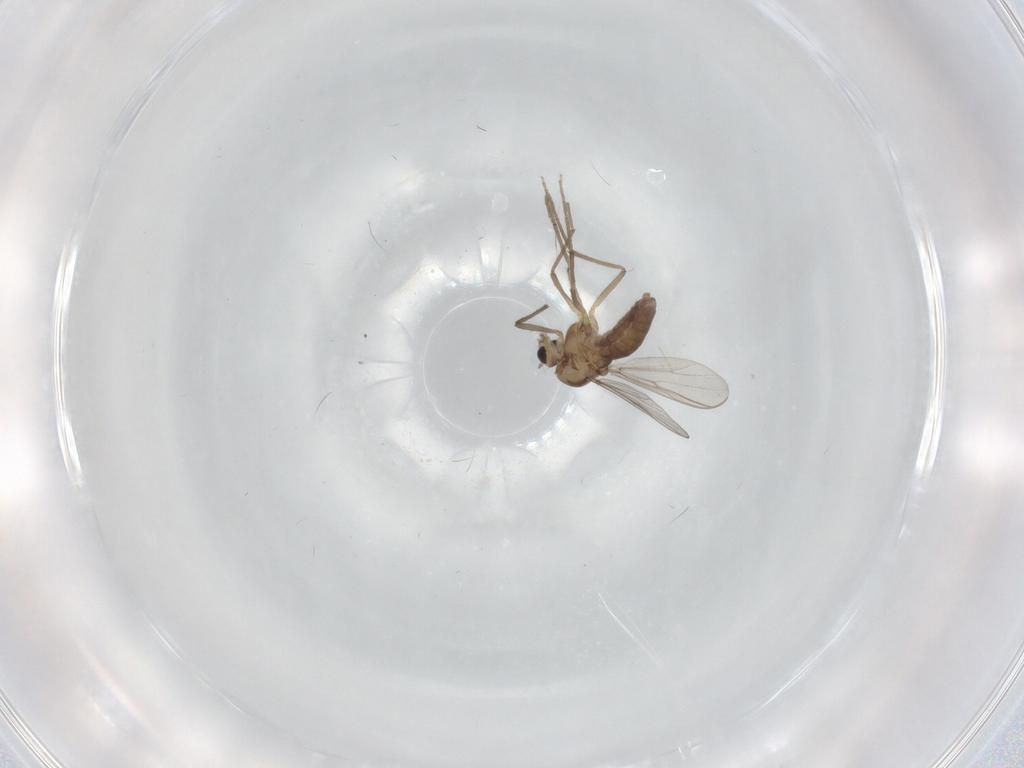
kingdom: Animalia
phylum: Arthropoda
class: Insecta
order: Diptera
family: Chironomidae
